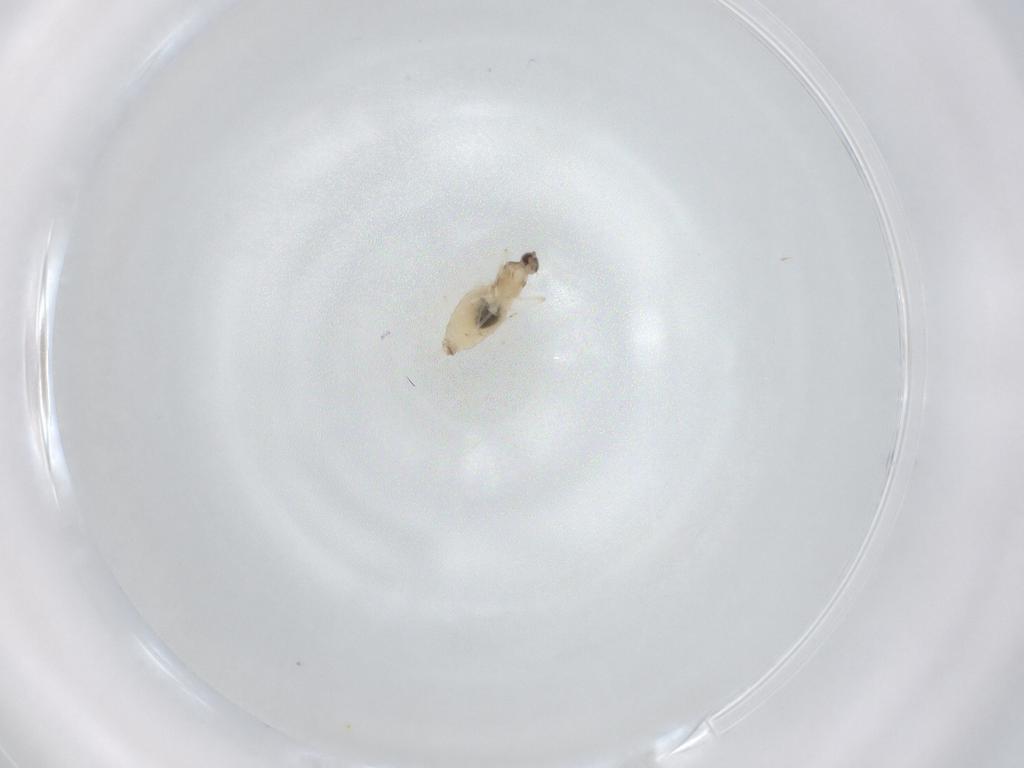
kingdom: Animalia
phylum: Arthropoda
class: Insecta
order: Diptera
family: Cecidomyiidae
